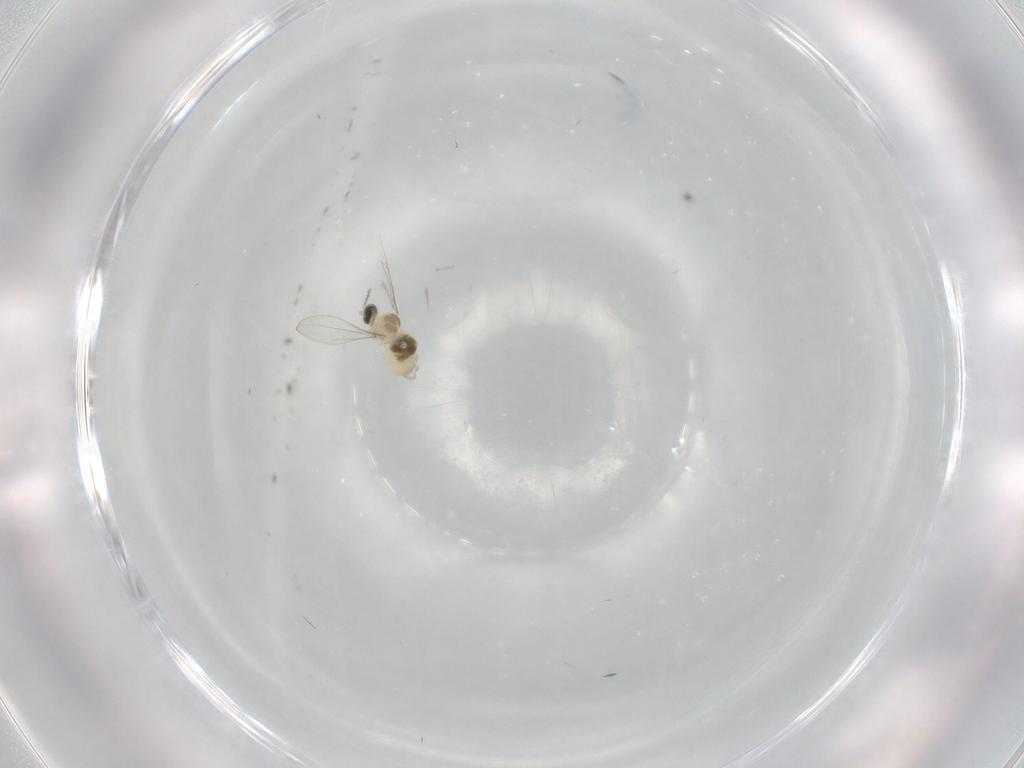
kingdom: Animalia
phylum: Arthropoda
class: Insecta
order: Diptera
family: Cecidomyiidae
